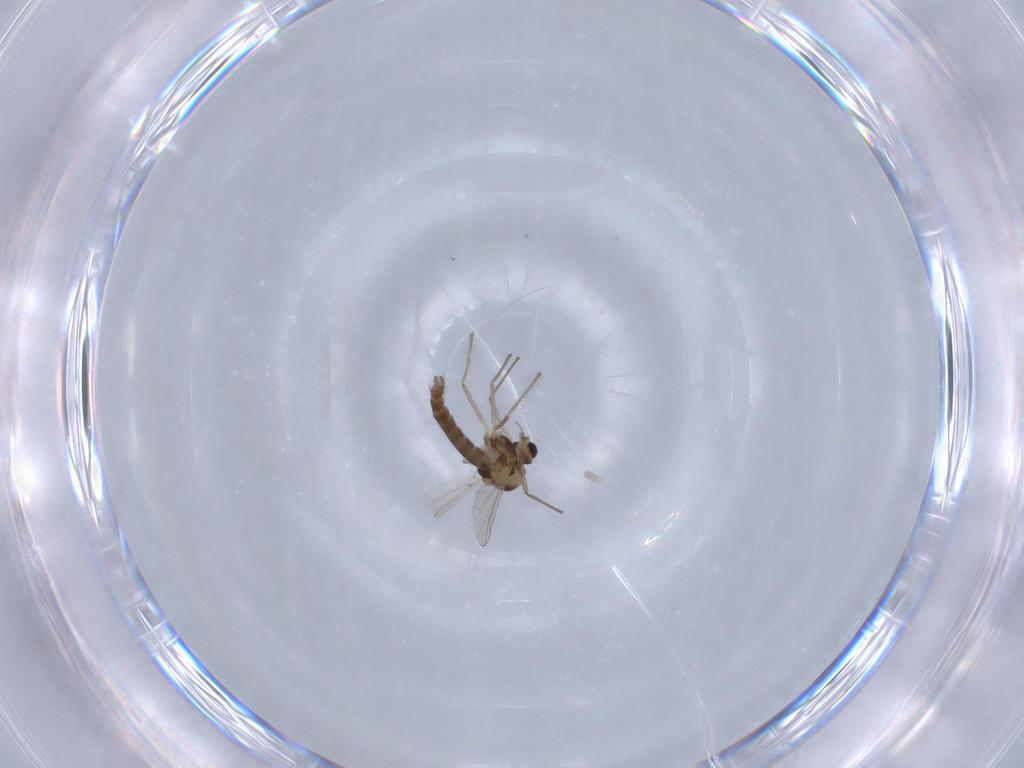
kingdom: Animalia
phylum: Arthropoda
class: Insecta
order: Diptera
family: Chironomidae
